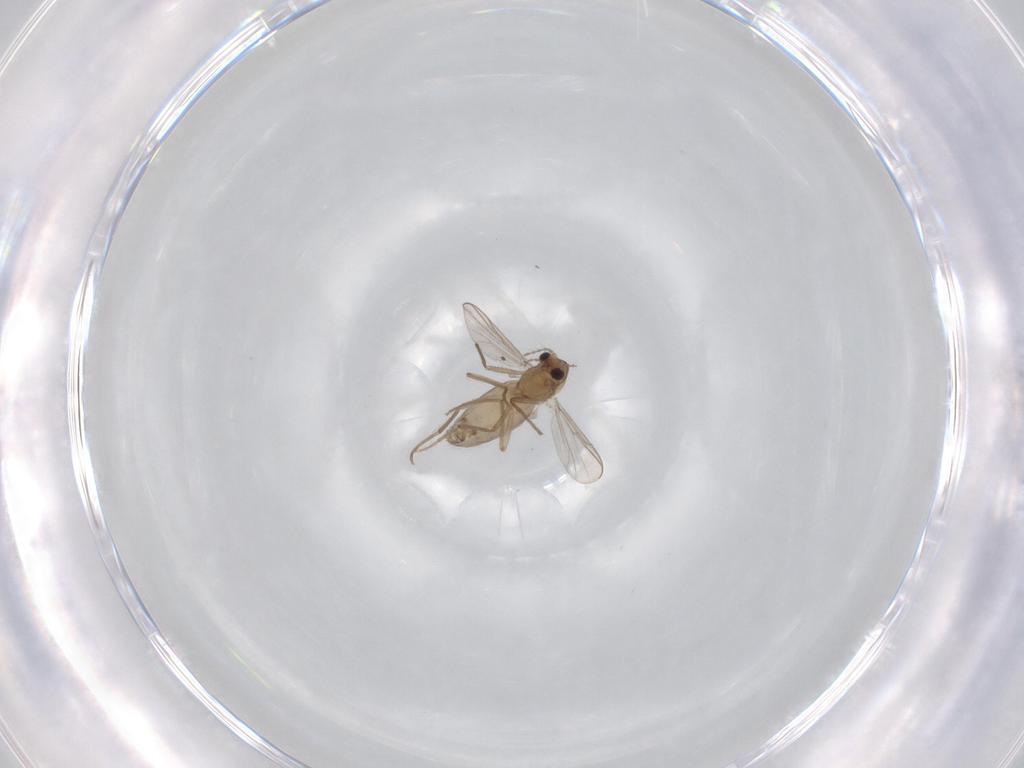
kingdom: Animalia
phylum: Arthropoda
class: Insecta
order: Diptera
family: Chironomidae
